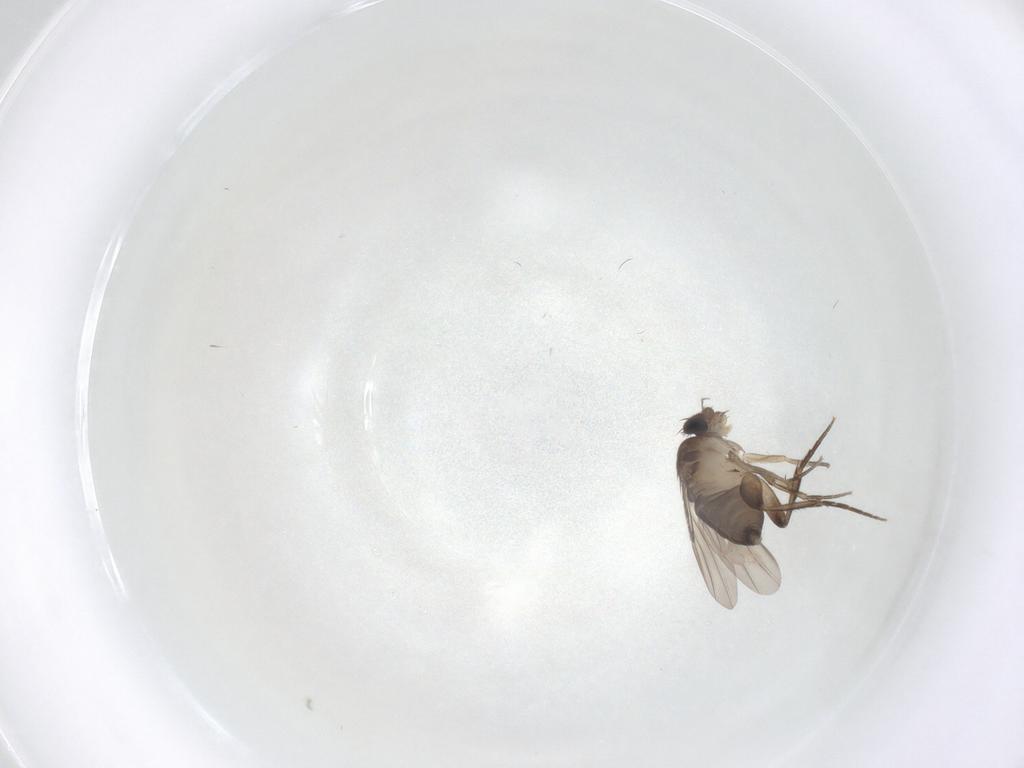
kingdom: Animalia
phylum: Arthropoda
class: Insecta
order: Diptera
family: Phoridae
